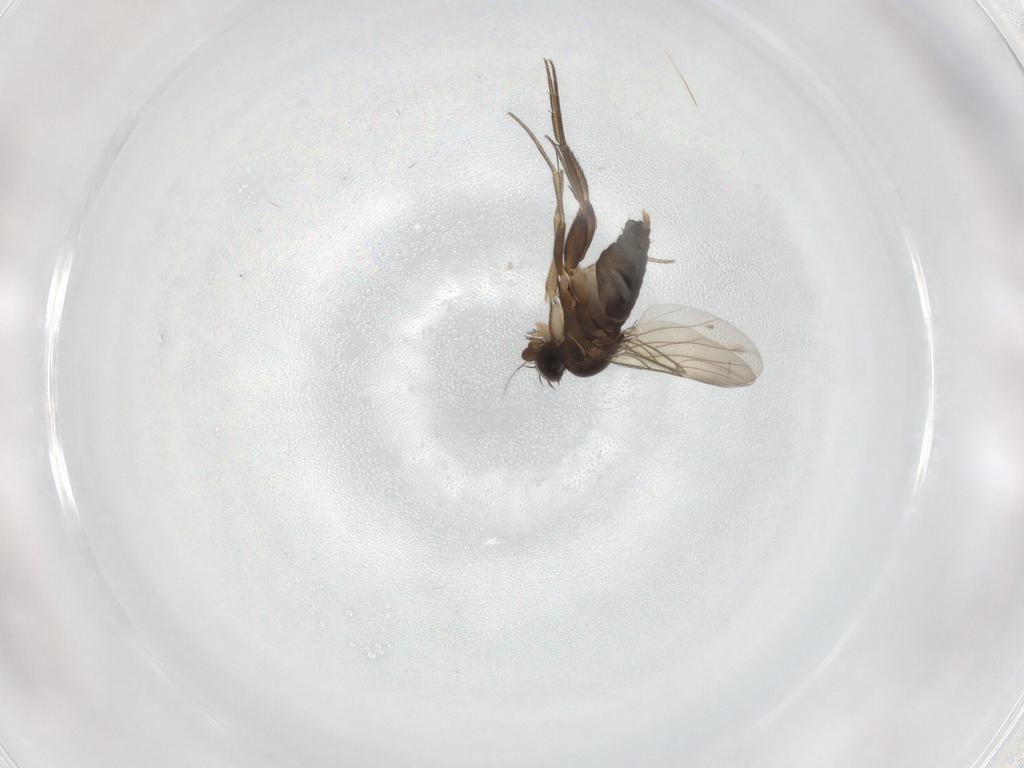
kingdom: Animalia
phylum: Arthropoda
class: Insecta
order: Diptera
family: Phoridae
